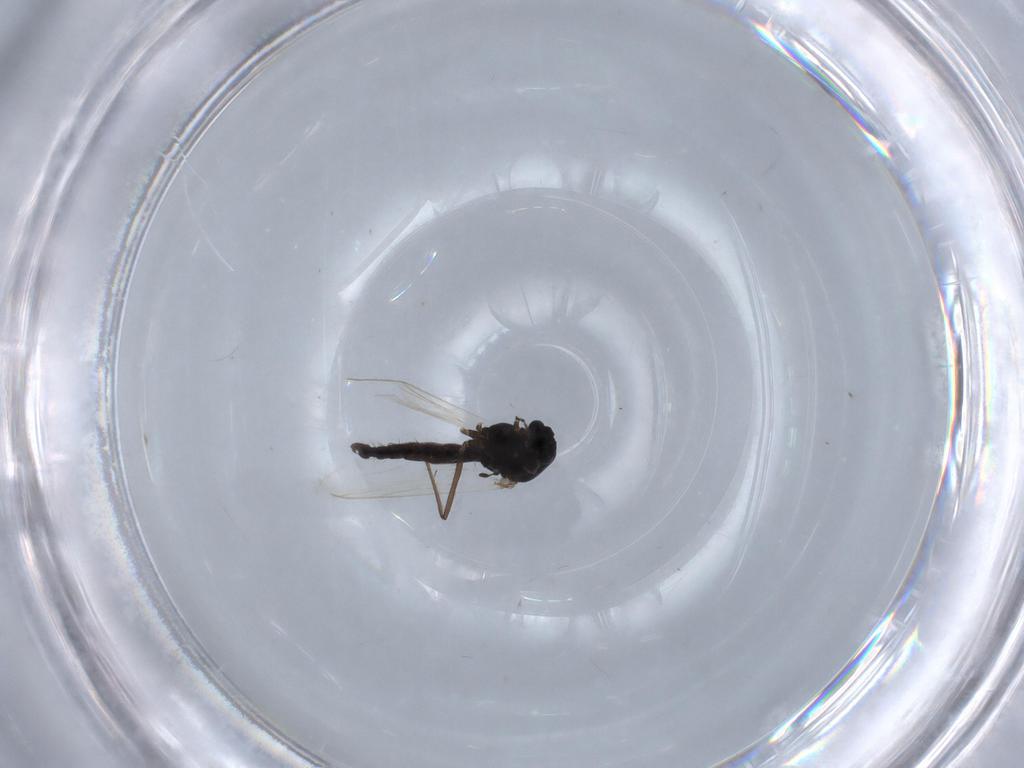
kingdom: Animalia
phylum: Arthropoda
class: Insecta
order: Diptera
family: Chironomidae
